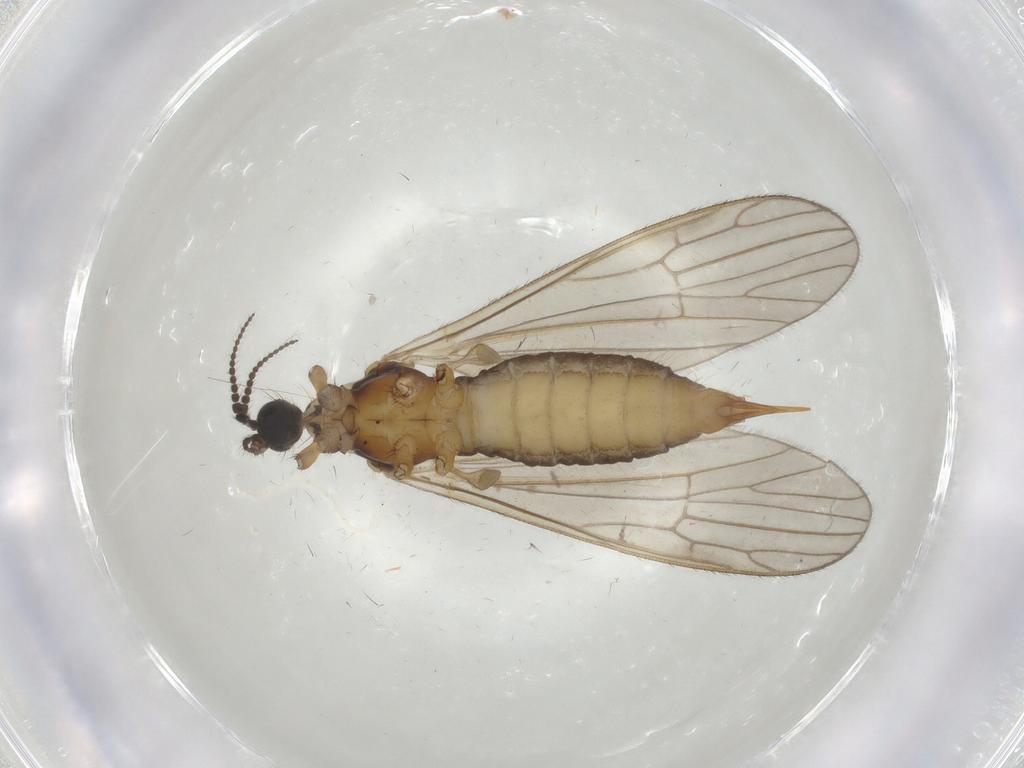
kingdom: Animalia
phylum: Arthropoda
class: Insecta
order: Diptera
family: Agromyzidae
